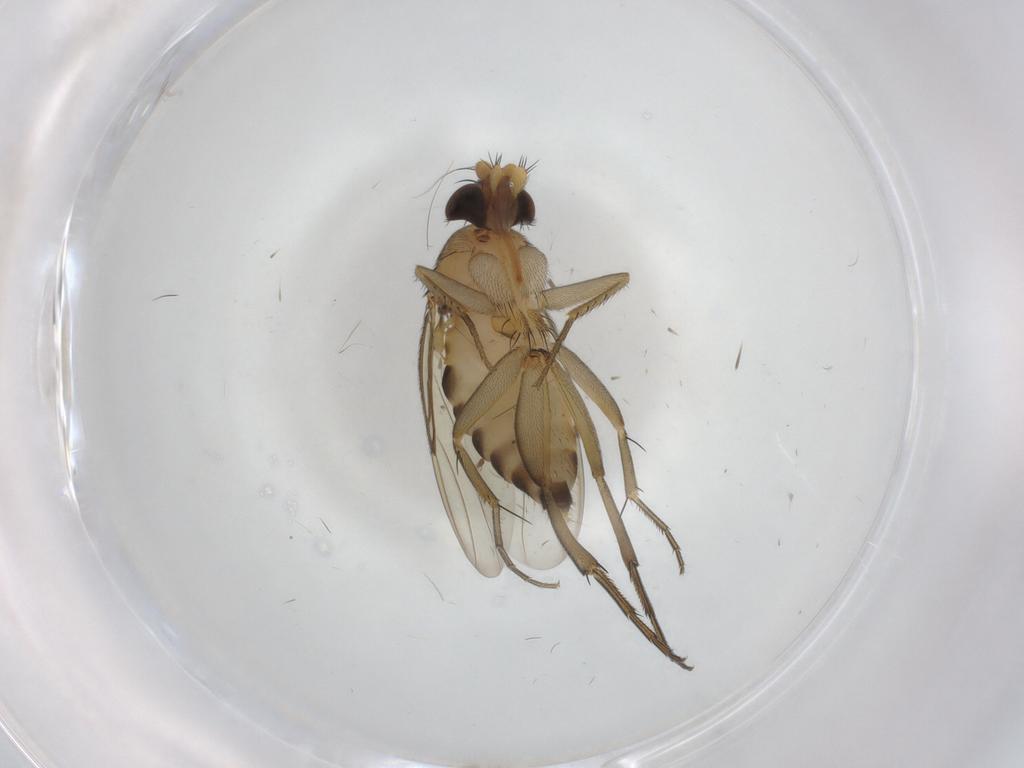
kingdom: Animalia
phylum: Arthropoda
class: Insecta
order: Diptera
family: Phoridae
